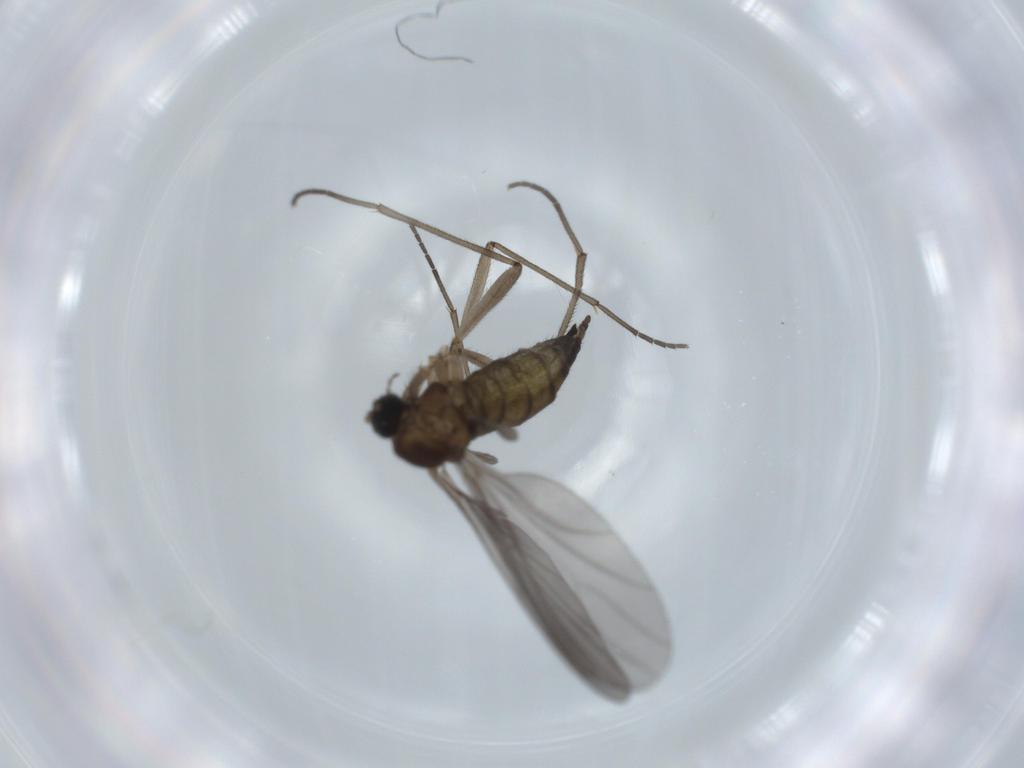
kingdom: Animalia
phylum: Arthropoda
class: Insecta
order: Diptera
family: Sciaridae
